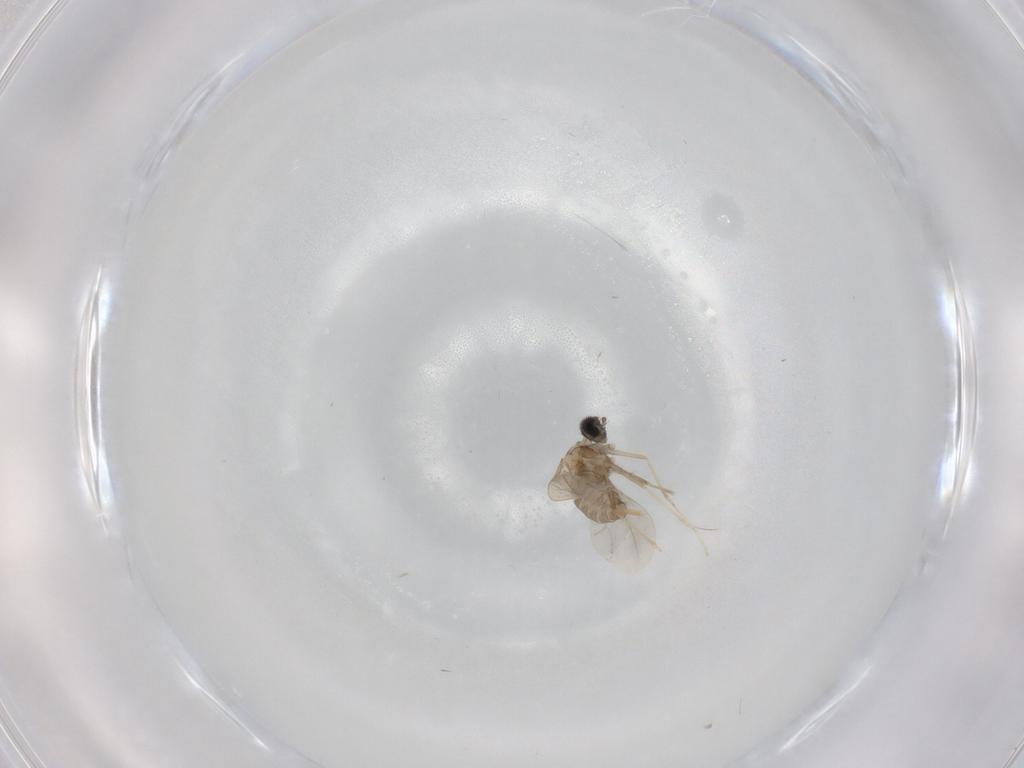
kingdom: Animalia
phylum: Arthropoda
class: Insecta
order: Diptera
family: Cecidomyiidae
